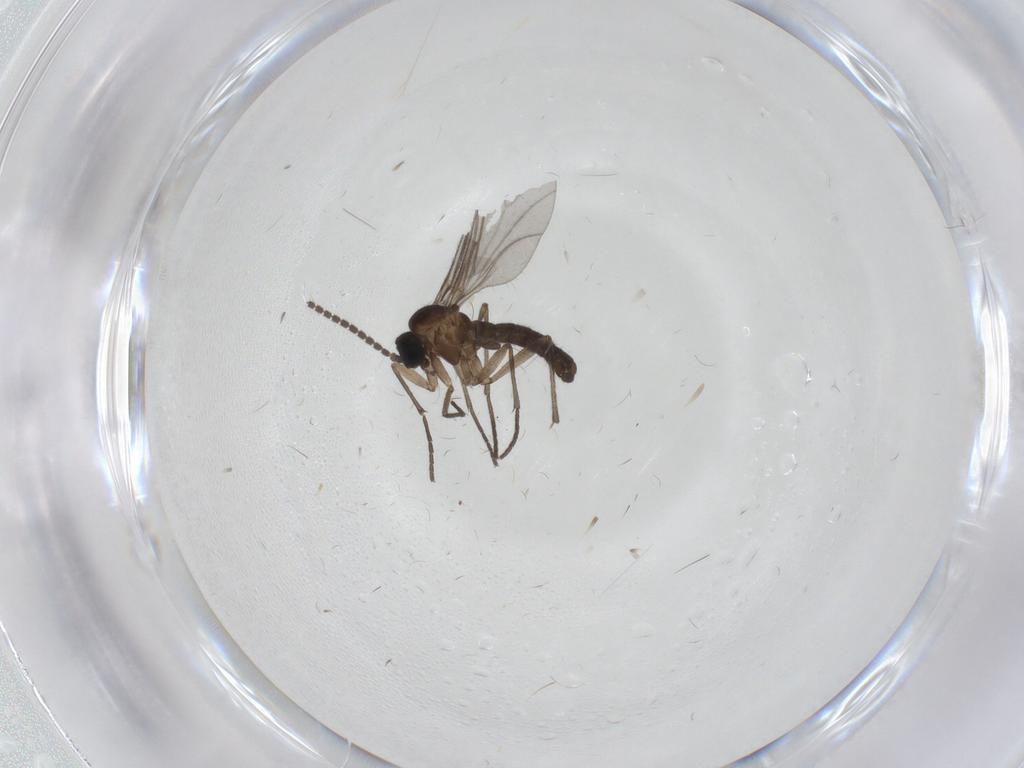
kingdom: Animalia
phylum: Arthropoda
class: Insecta
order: Diptera
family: Sciaridae
